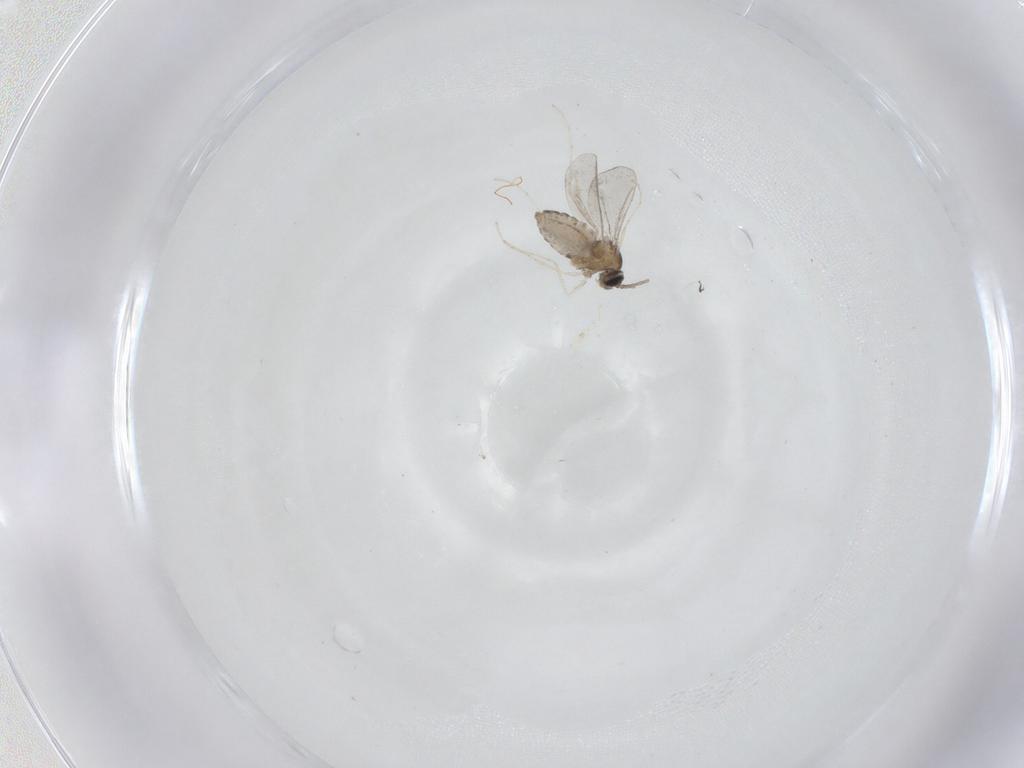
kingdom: Animalia
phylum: Arthropoda
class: Insecta
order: Diptera
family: Cecidomyiidae
